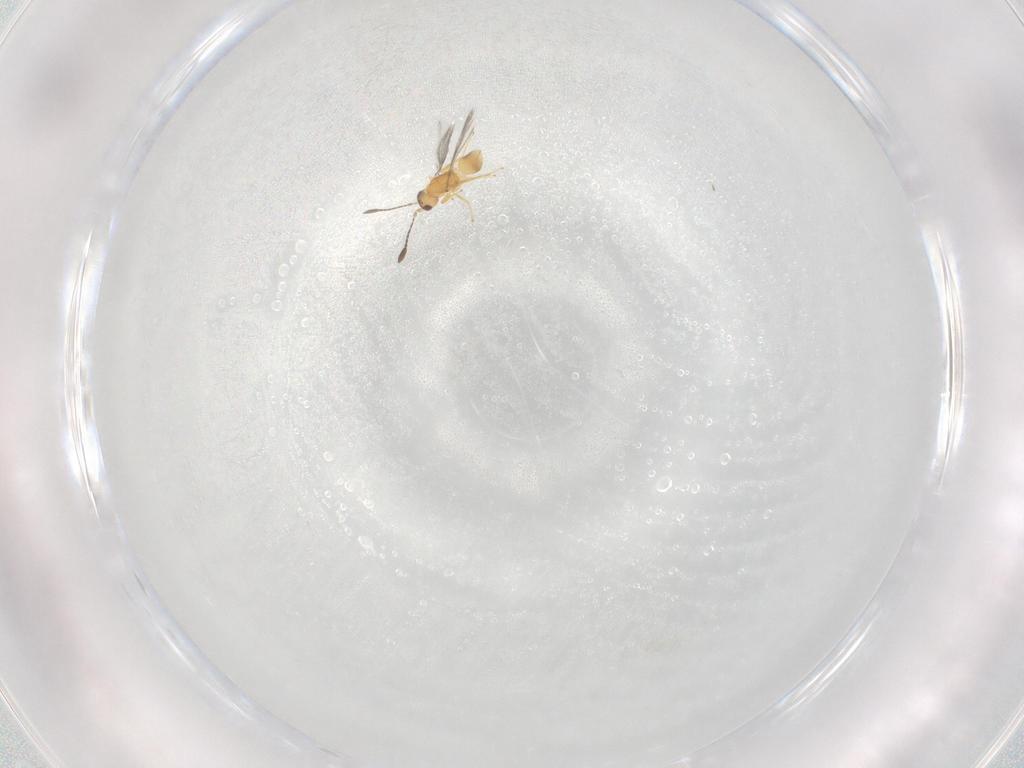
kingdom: Animalia
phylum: Arthropoda
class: Insecta
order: Hymenoptera
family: Mymaridae
